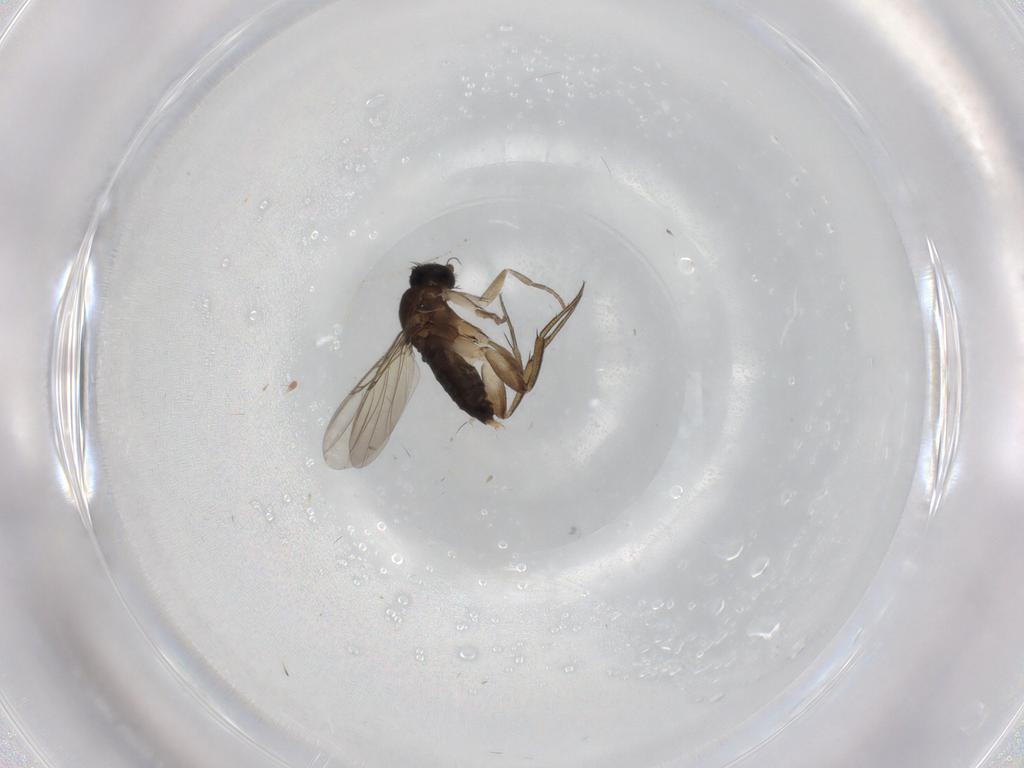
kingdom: Animalia
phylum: Arthropoda
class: Insecta
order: Diptera
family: Phoridae
